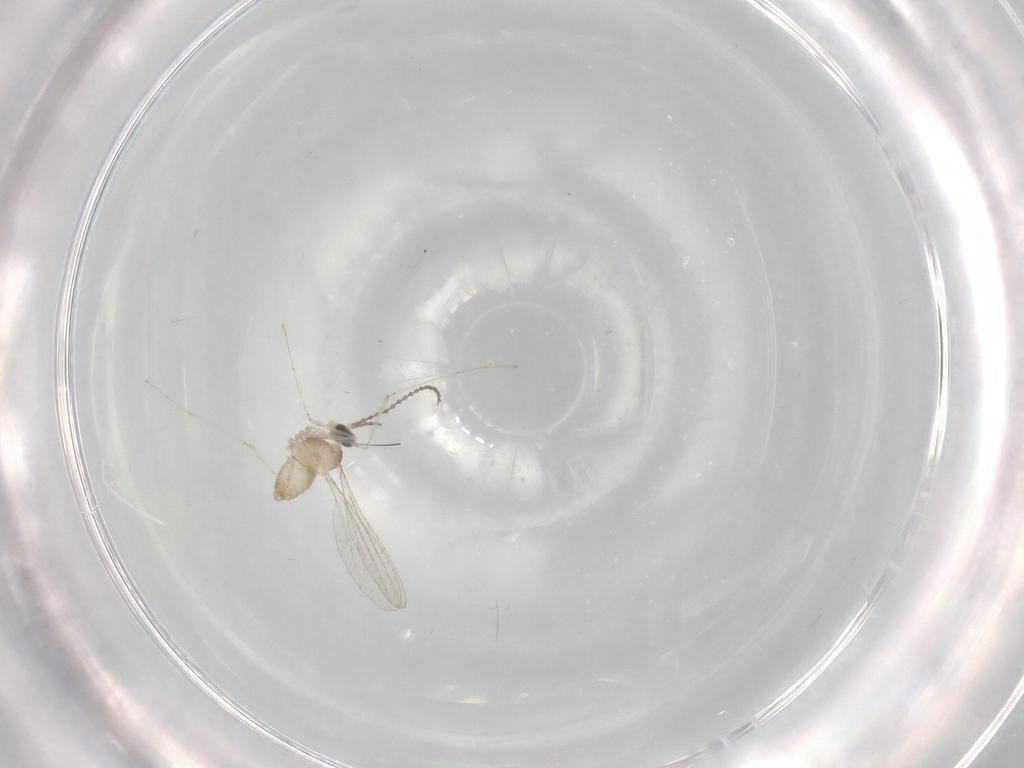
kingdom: Animalia
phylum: Arthropoda
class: Insecta
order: Diptera
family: Cecidomyiidae
